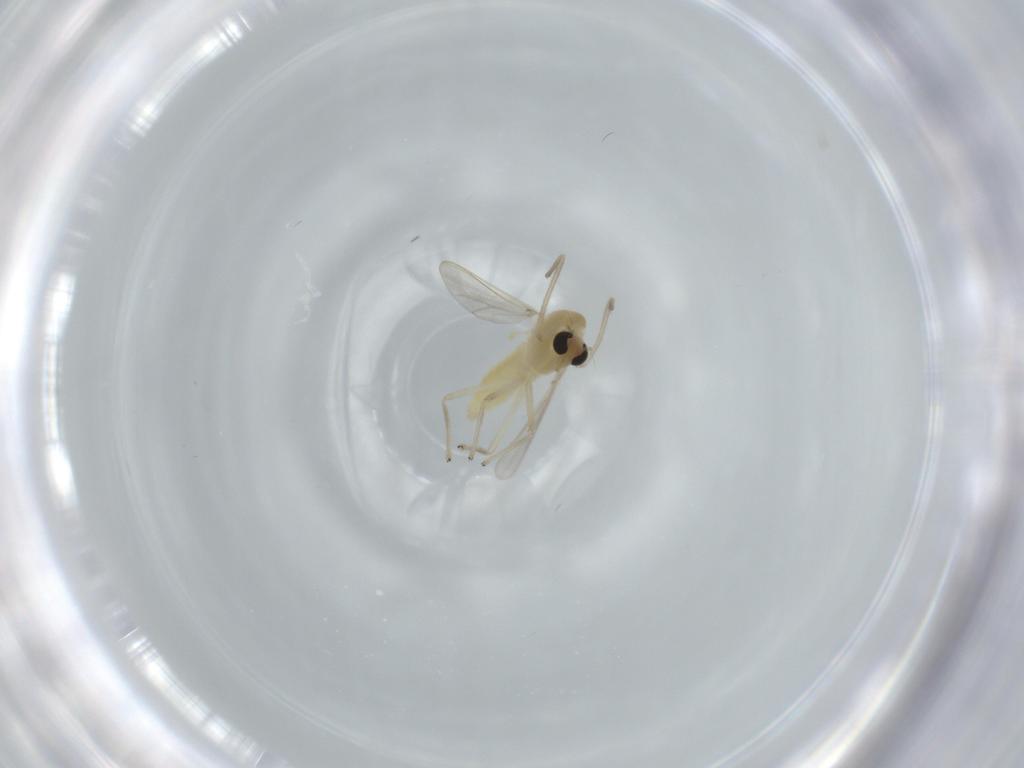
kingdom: Animalia
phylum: Arthropoda
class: Insecta
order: Diptera
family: Chironomidae
